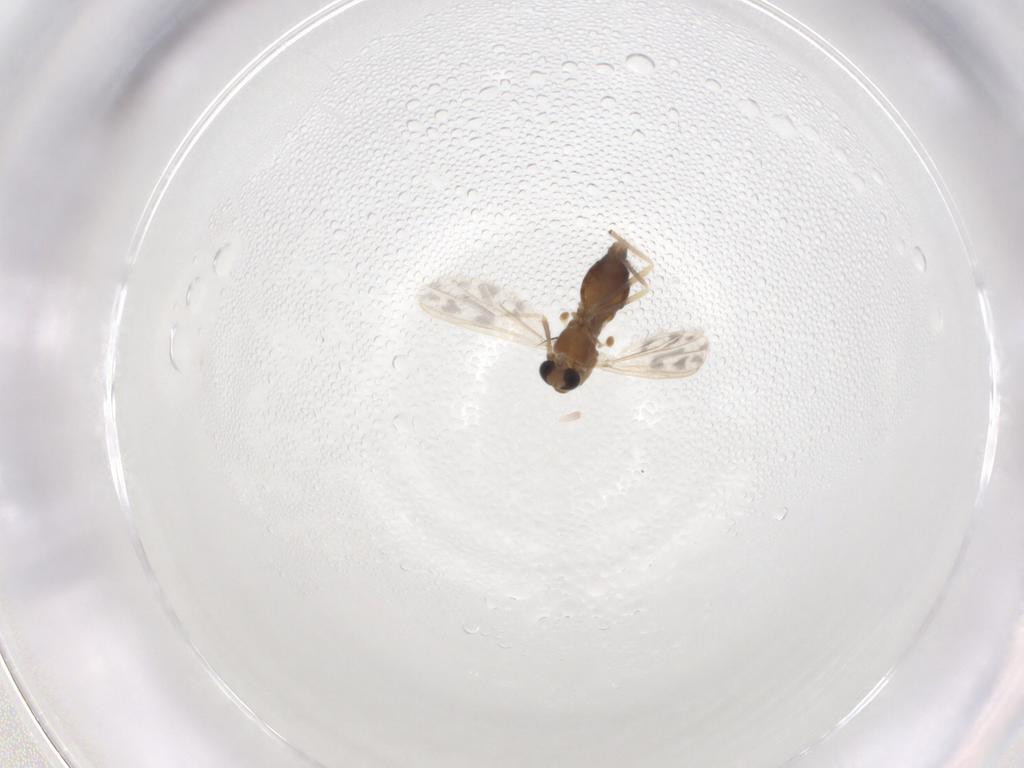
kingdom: Animalia
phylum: Arthropoda
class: Insecta
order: Diptera
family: Chironomidae
